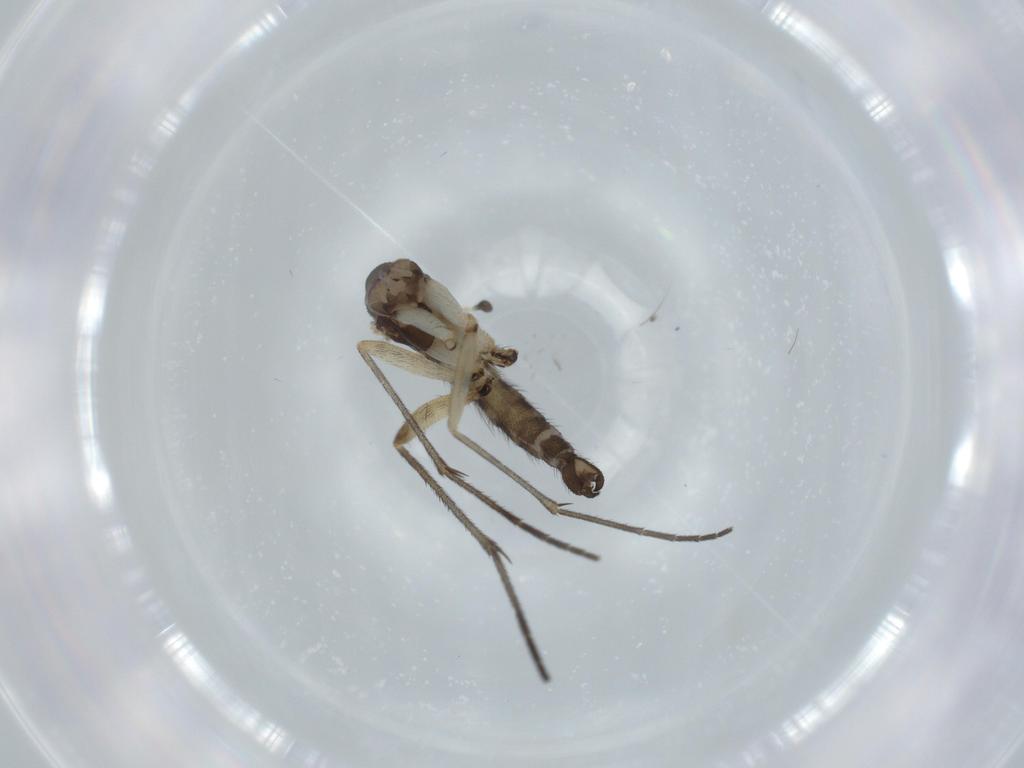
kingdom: Animalia
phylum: Arthropoda
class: Insecta
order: Diptera
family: Sciaridae
